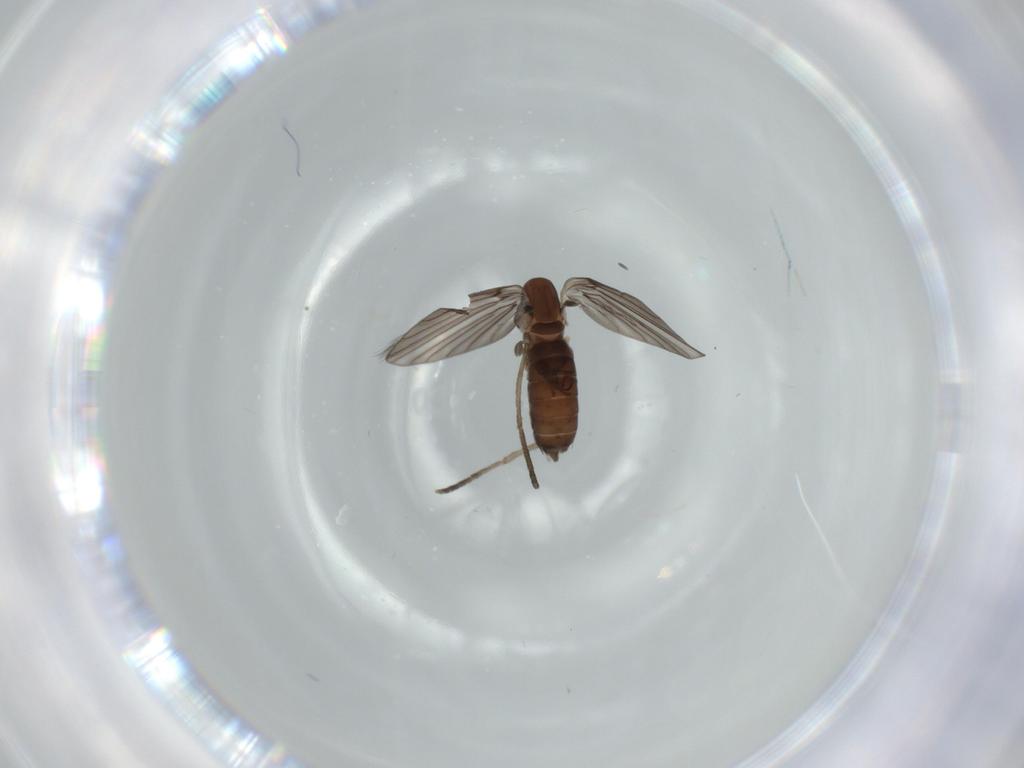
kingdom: Animalia
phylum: Arthropoda
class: Insecta
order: Diptera
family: Psychodidae
